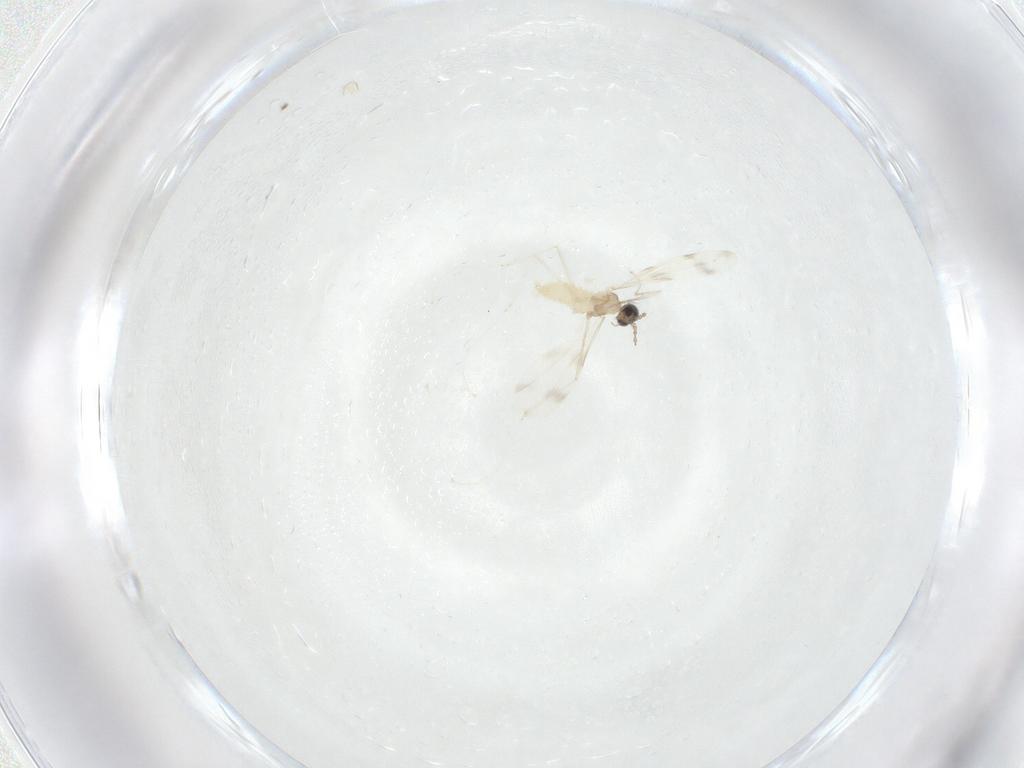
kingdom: Animalia
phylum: Arthropoda
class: Insecta
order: Diptera
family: Cecidomyiidae
